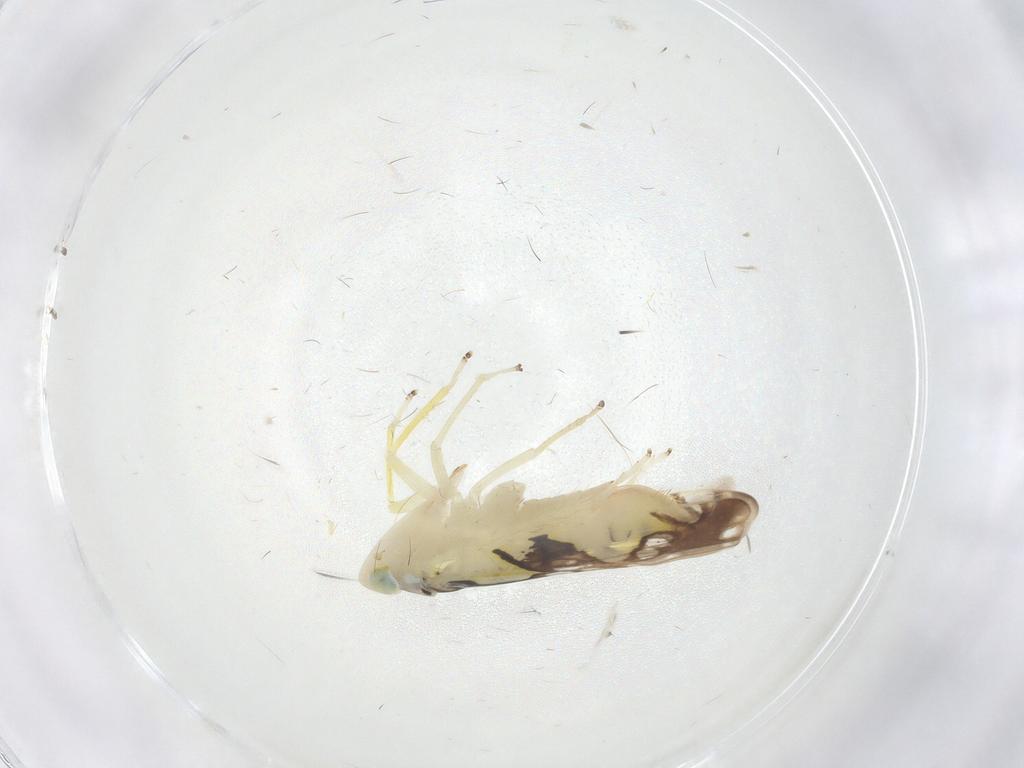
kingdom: Animalia
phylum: Arthropoda
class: Insecta
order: Hemiptera
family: Cicadellidae
